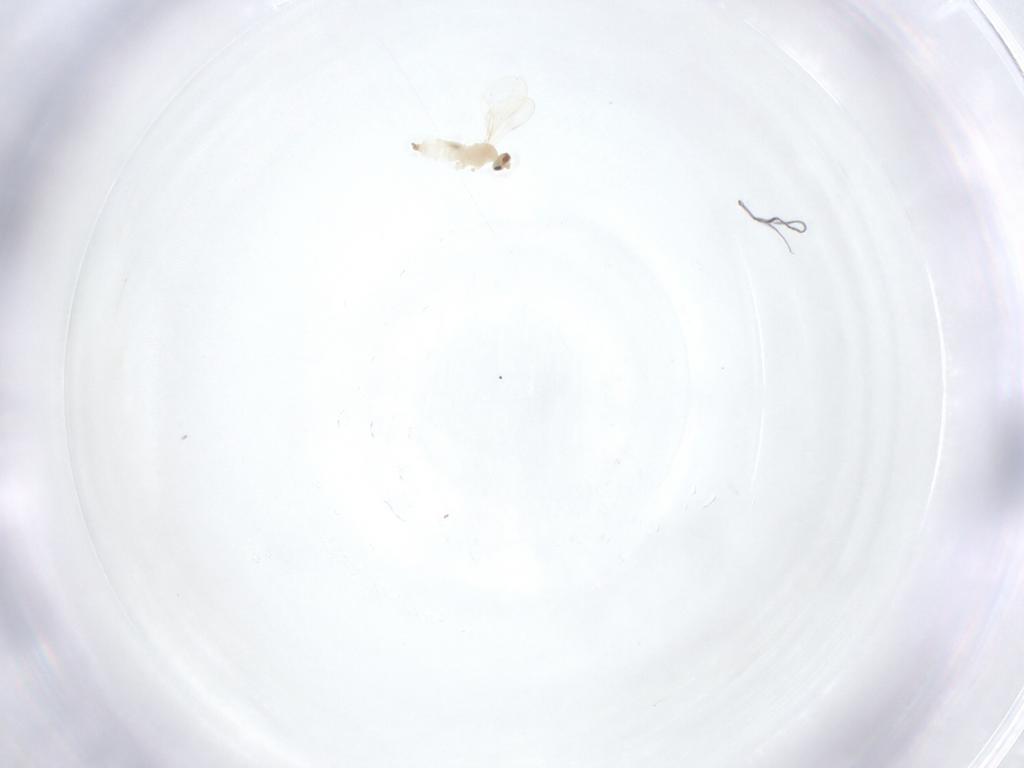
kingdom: Animalia
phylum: Arthropoda
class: Insecta
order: Diptera
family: Cecidomyiidae
